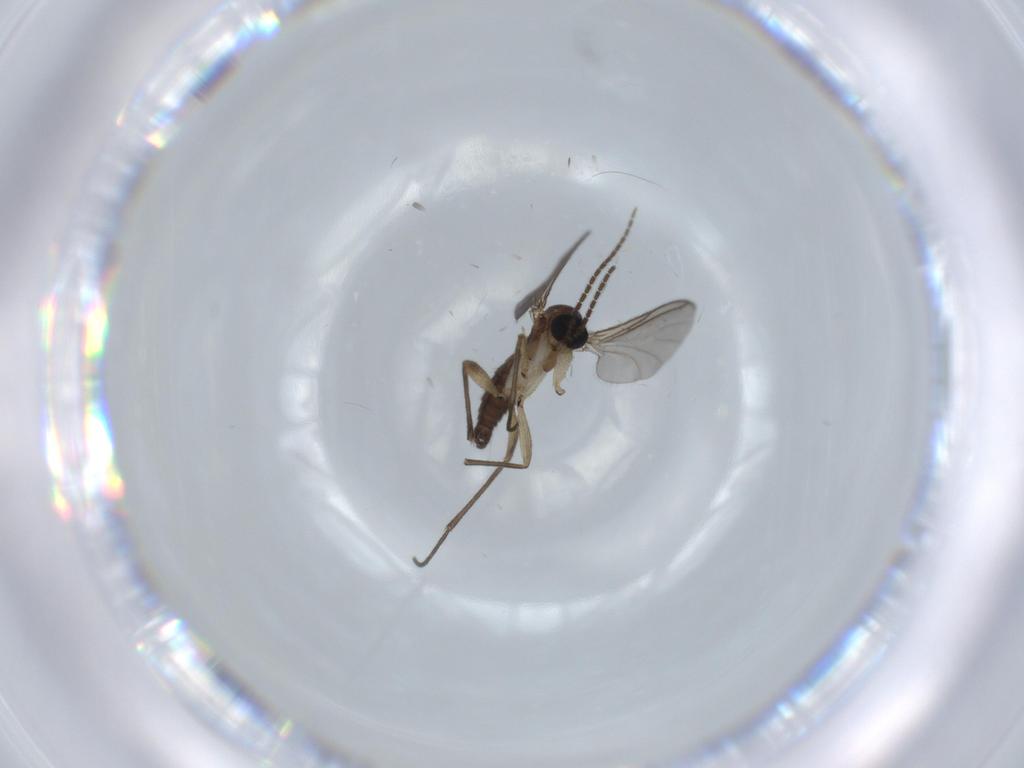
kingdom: Animalia
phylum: Arthropoda
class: Insecta
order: Diptera
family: Sciaridae
